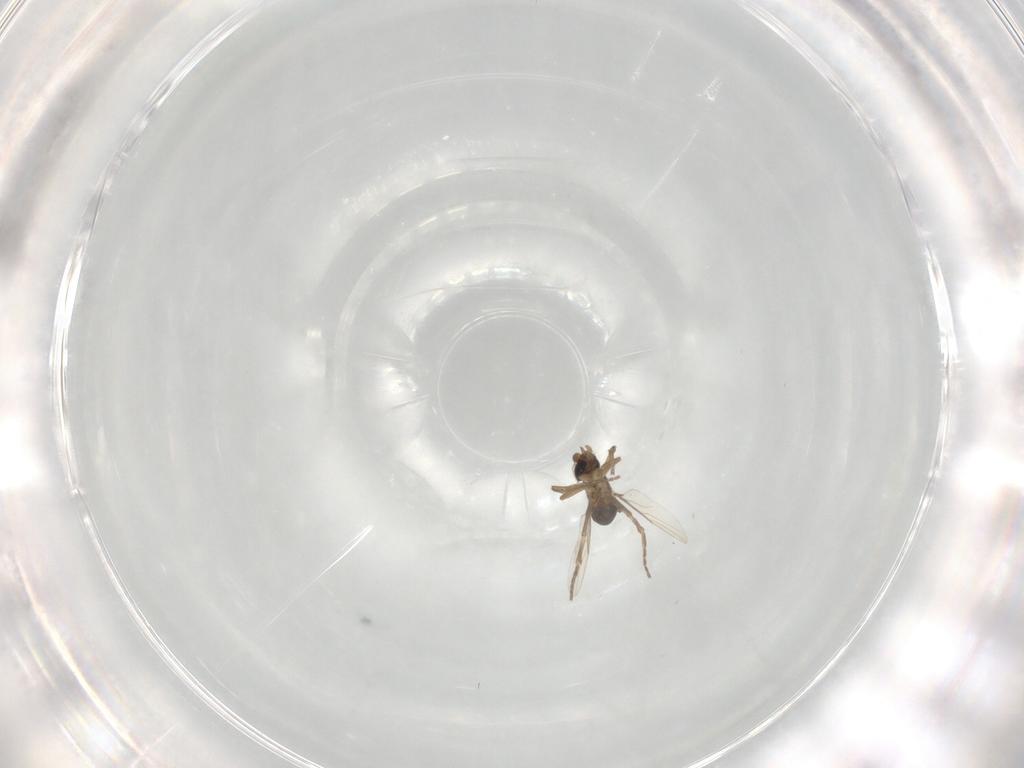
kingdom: Animalia
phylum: Arthropoda
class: Insecta
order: Diptera
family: Phoridae
